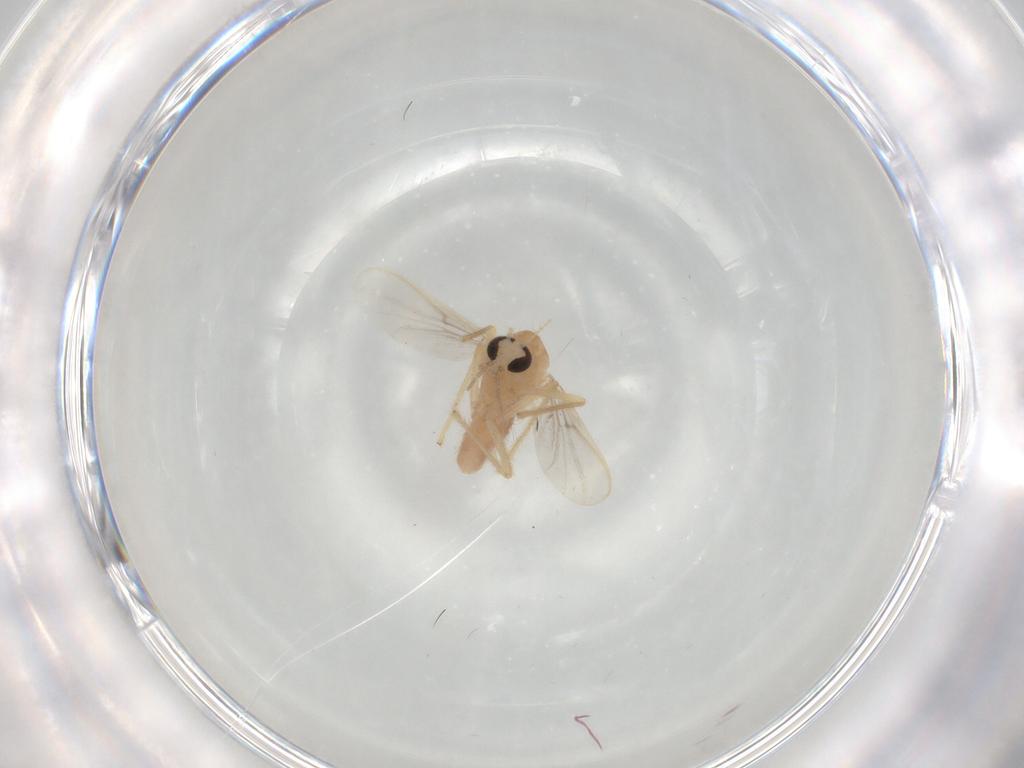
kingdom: Animalia
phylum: Arthropoda
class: Insecta
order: Diptera
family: Chironomidae
